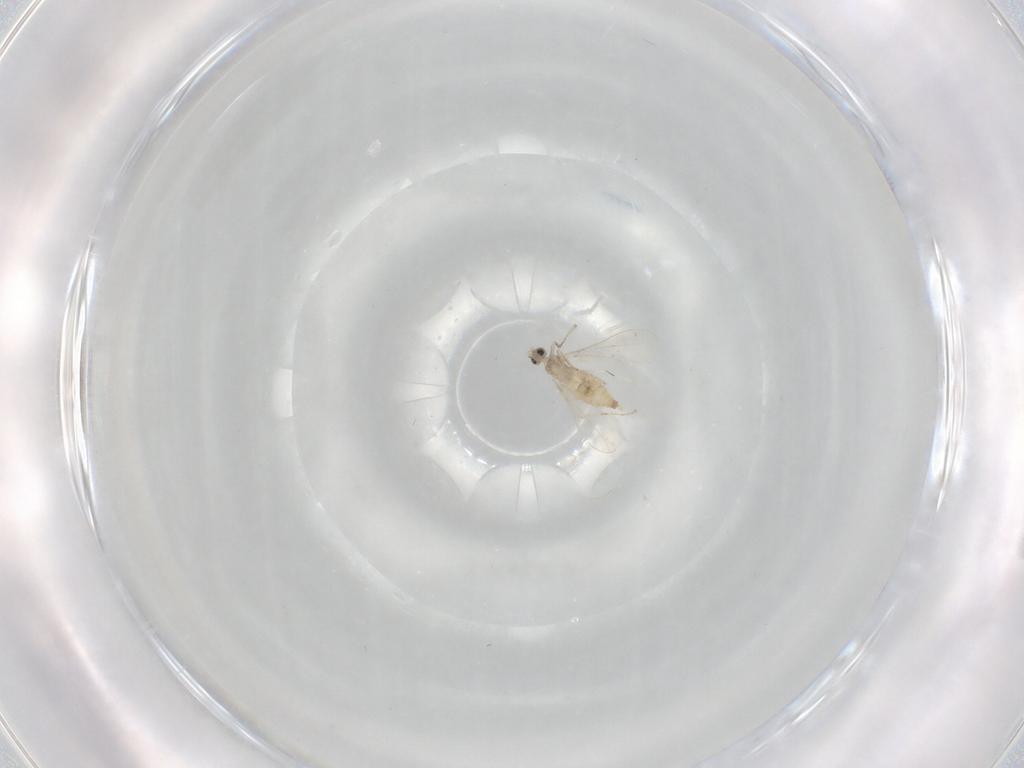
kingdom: Animalia
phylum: Arthropoda
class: Insecta
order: Diptera
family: Cecidomyiidae
